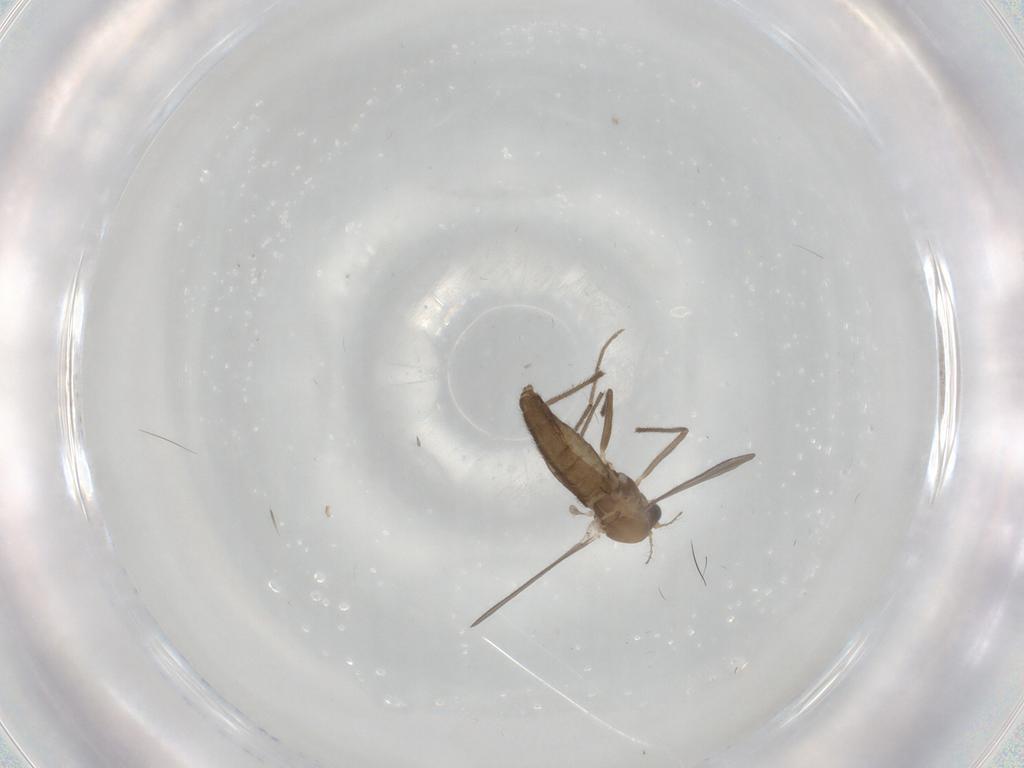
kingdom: Animalia
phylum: Arthropoda
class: Insecta
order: Diptera
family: Chironomidae
